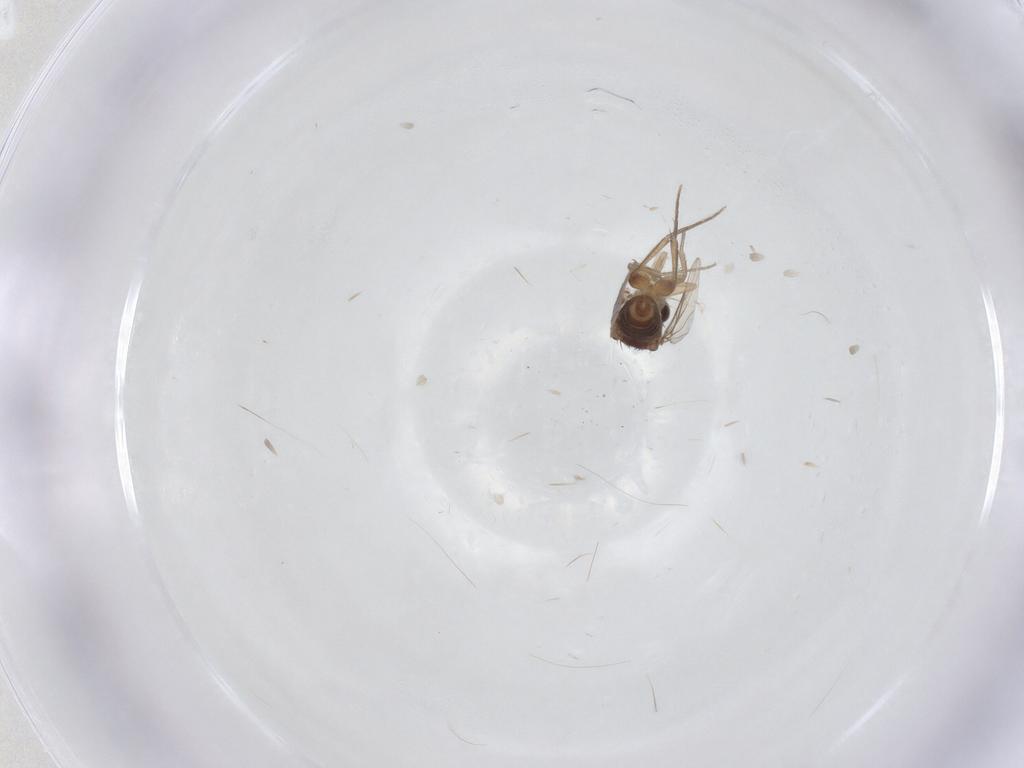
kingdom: Animalia
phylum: Arthropoda
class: Insecta
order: Diptera
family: Phoridae
